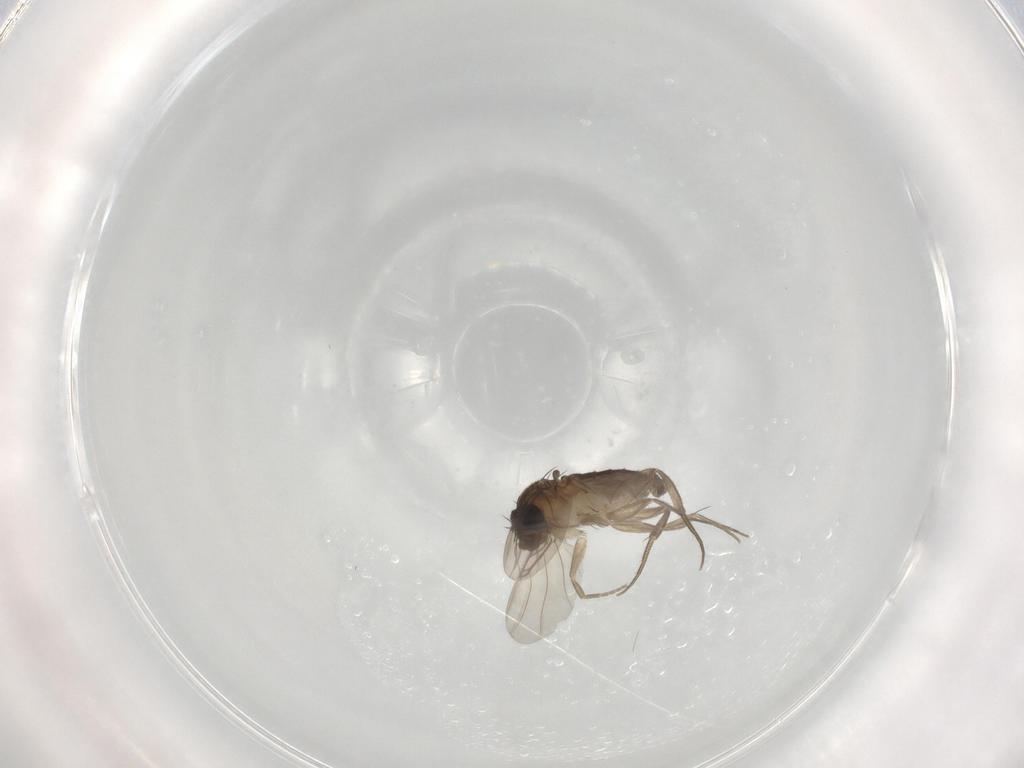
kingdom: Animalia
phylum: Arthropoda
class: Insecta
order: Diptera
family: Phoridae
